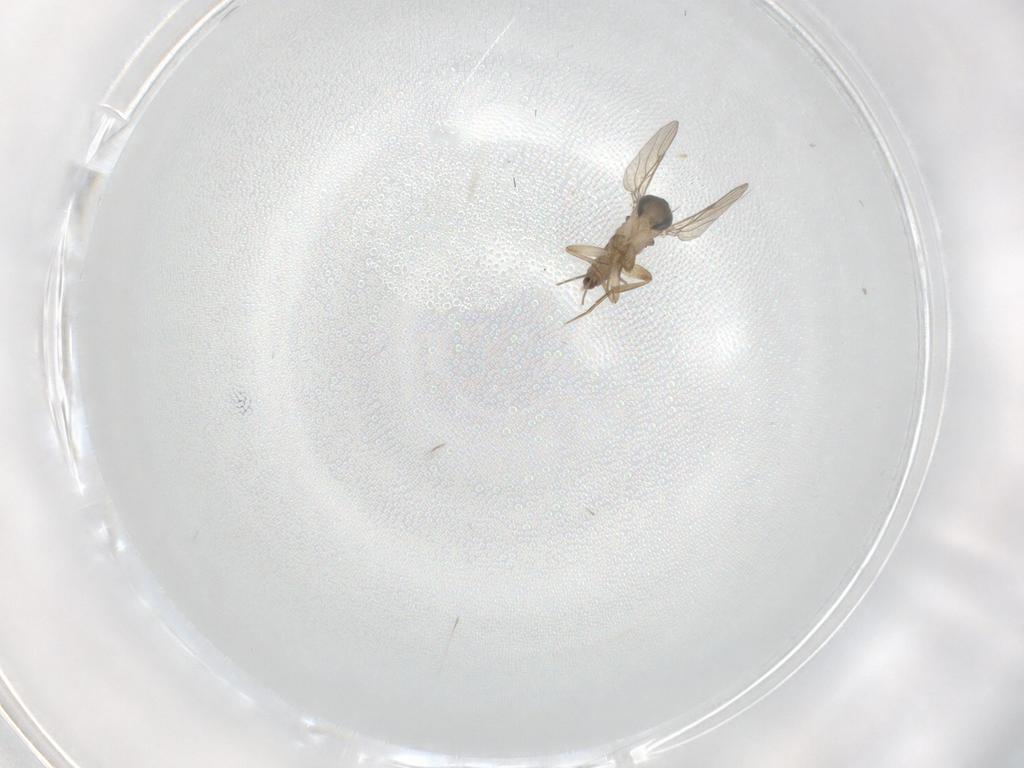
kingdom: Animalia
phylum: Arthropoda
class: Insecta
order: Diptera
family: Phoridae
